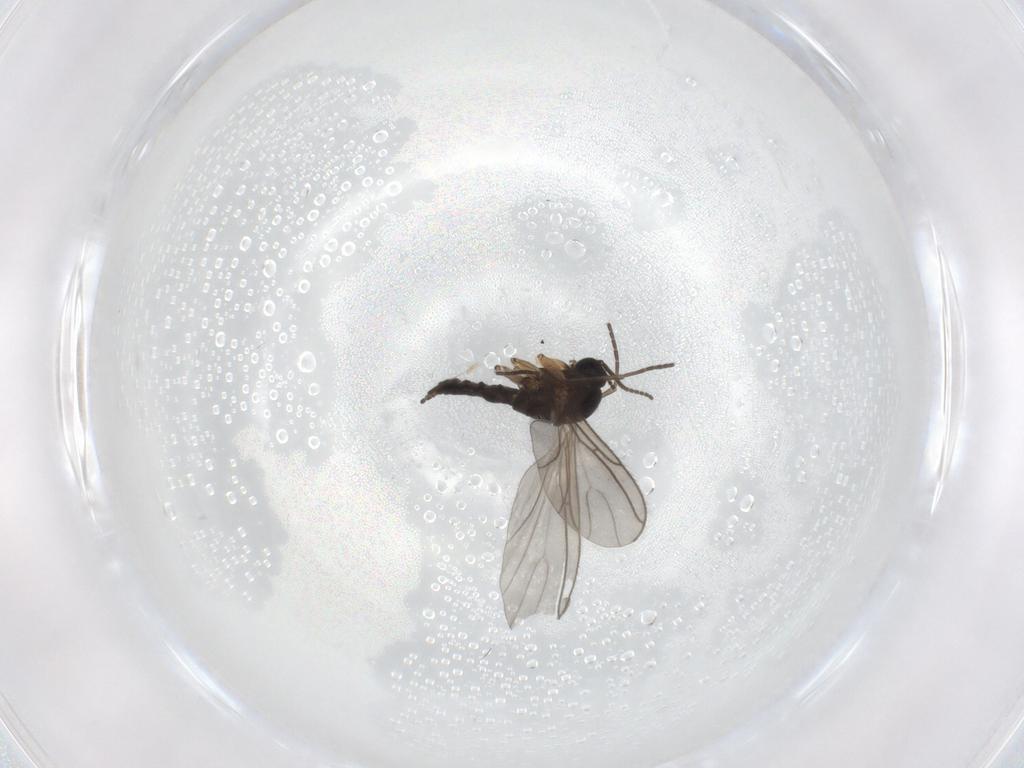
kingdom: Animalia
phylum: Arthropoda
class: Insecta
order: Diptera
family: Sciaridae
